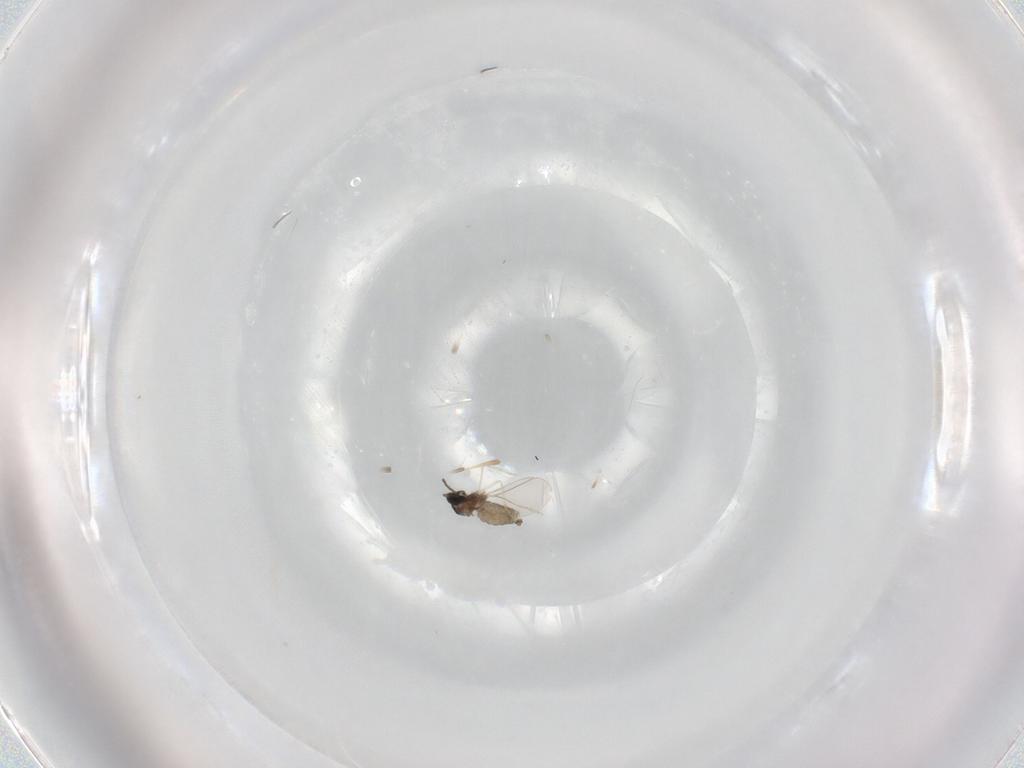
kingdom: Animalia
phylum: Arthropoda
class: Insecta
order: Diptera
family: Cecidomyiidae
